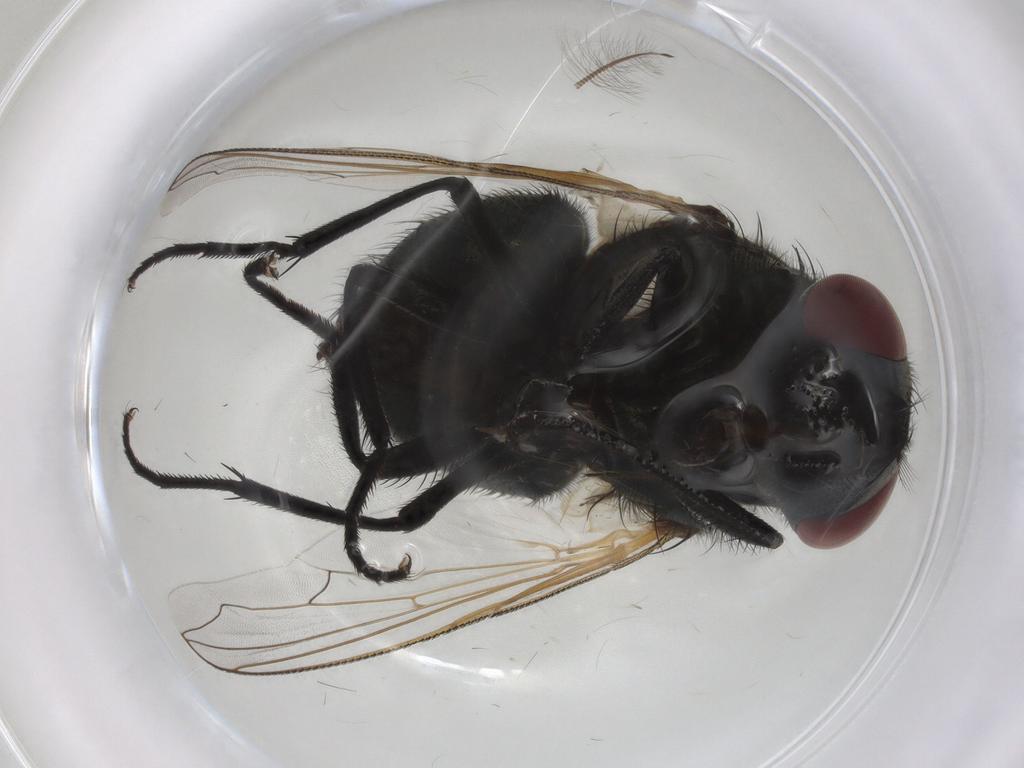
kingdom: Animalia
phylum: Arthropoda
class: Insecta
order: Diptera
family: Muscidae
